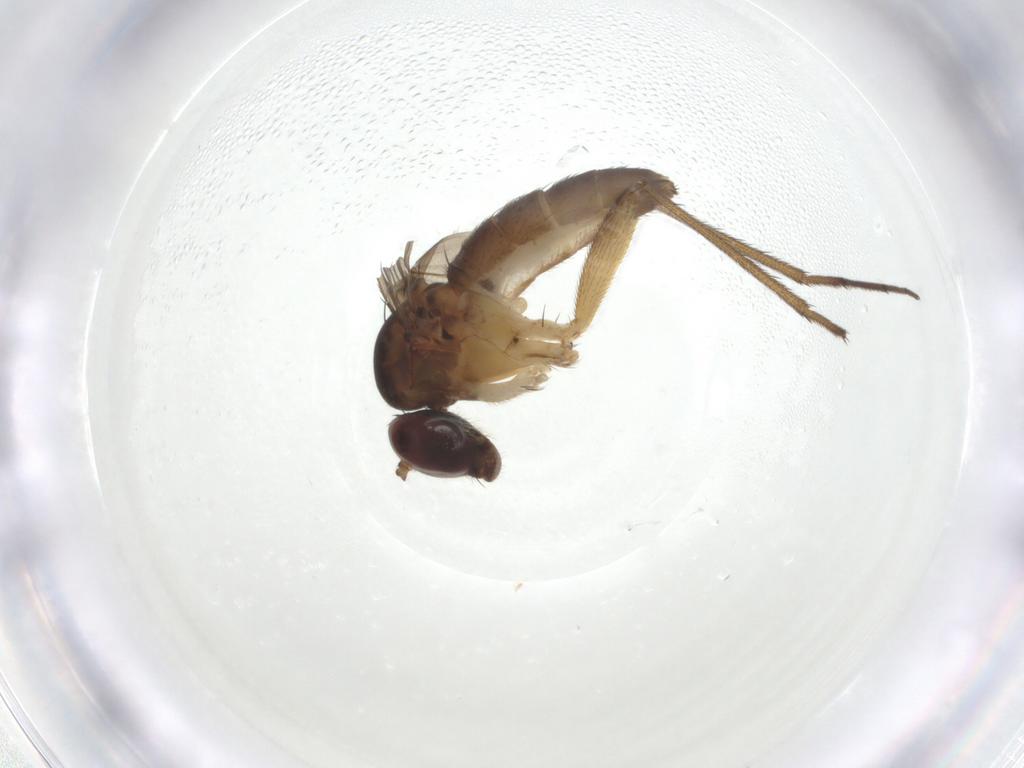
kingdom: Animalia
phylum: Arthropoda
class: Insecta
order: Diptera
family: Dolichopodidae
